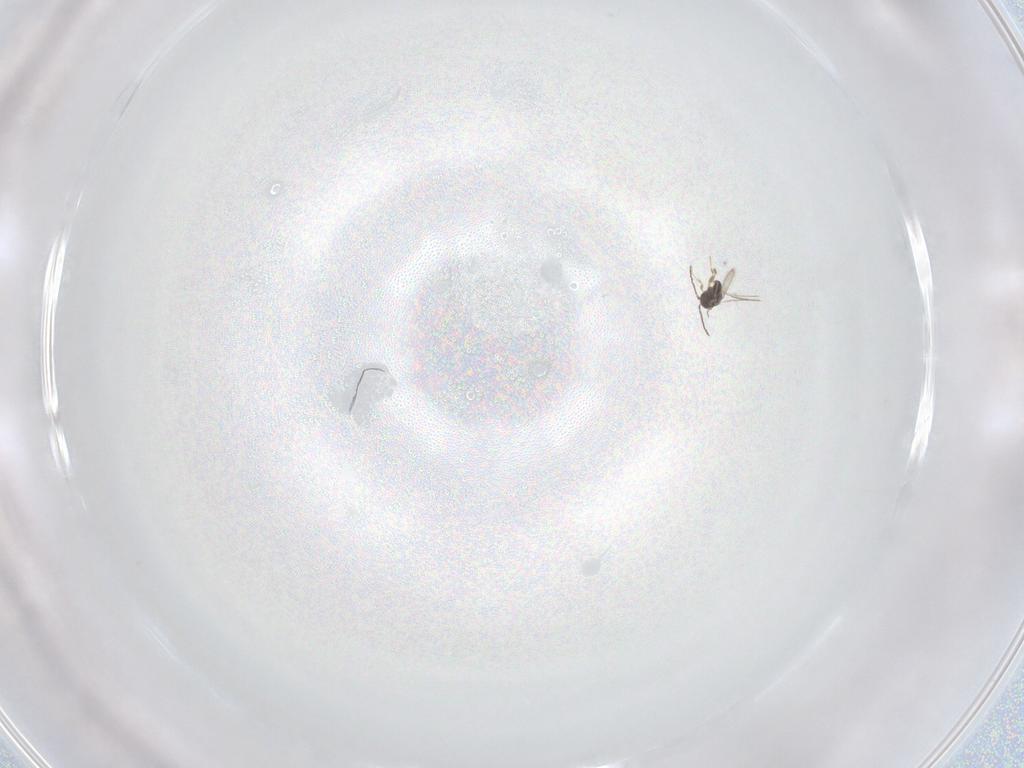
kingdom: Animalia
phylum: Arthropoda
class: Insecta
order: Hymenoptera
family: Scelionidae
